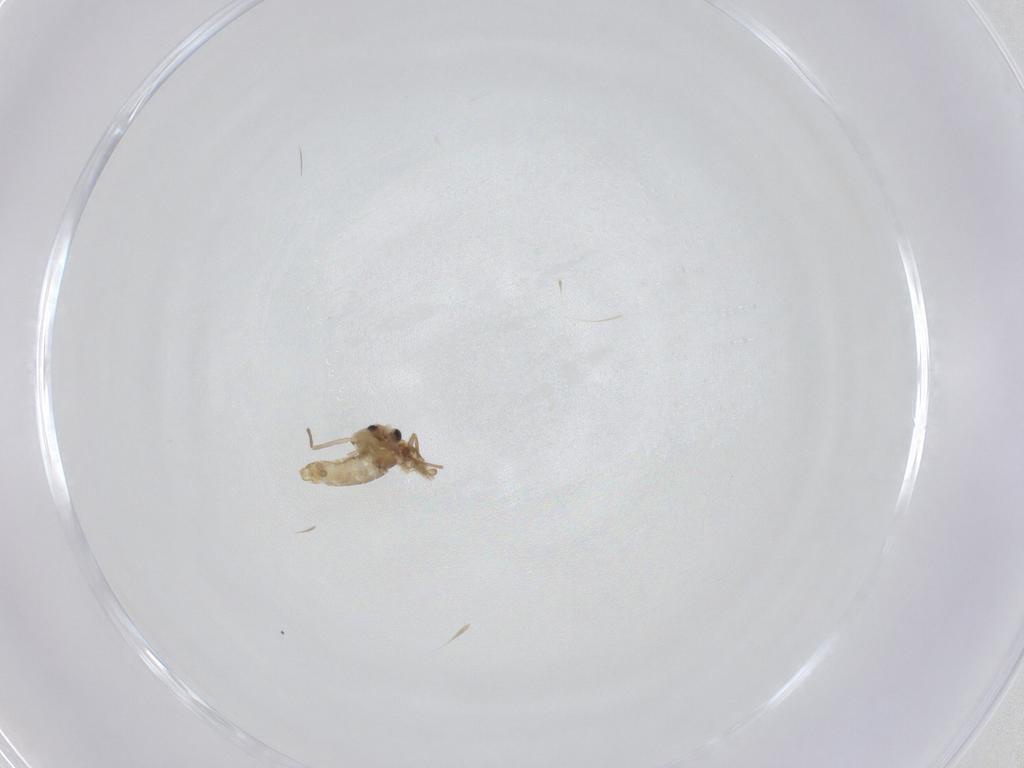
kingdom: Animalia
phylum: Arthropoda
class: Insecta
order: Diptera
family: Chironomidae
